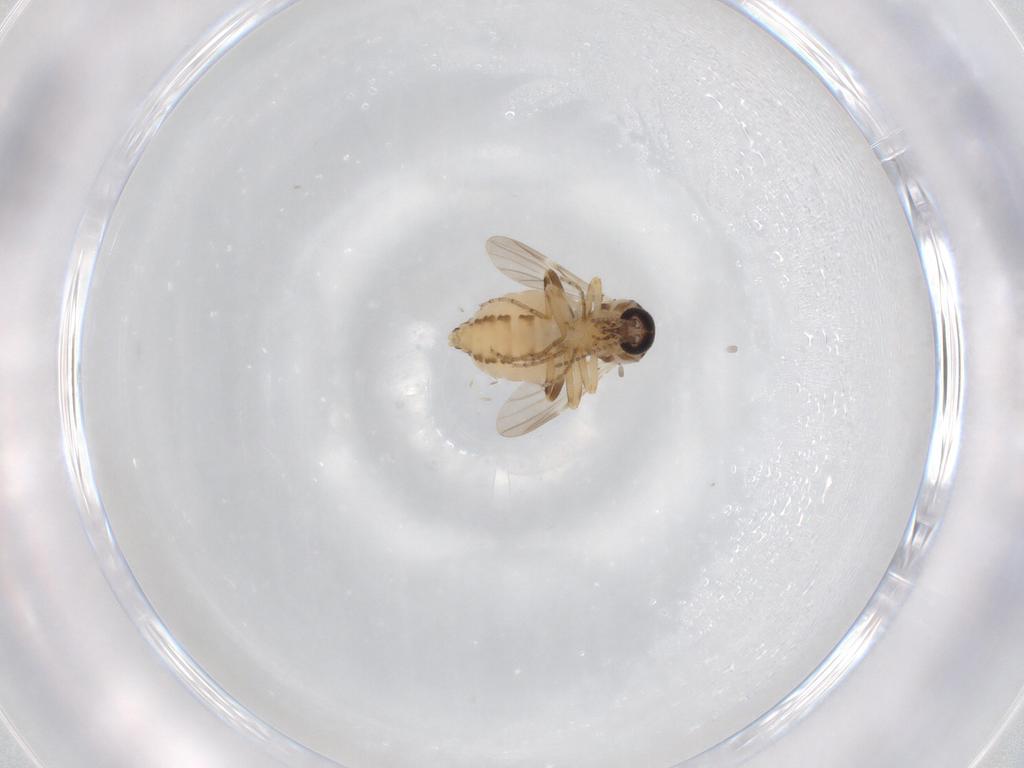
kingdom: Animalia
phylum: Arthropoda
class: Insecta
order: Diptera
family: Ceratopogonidae
